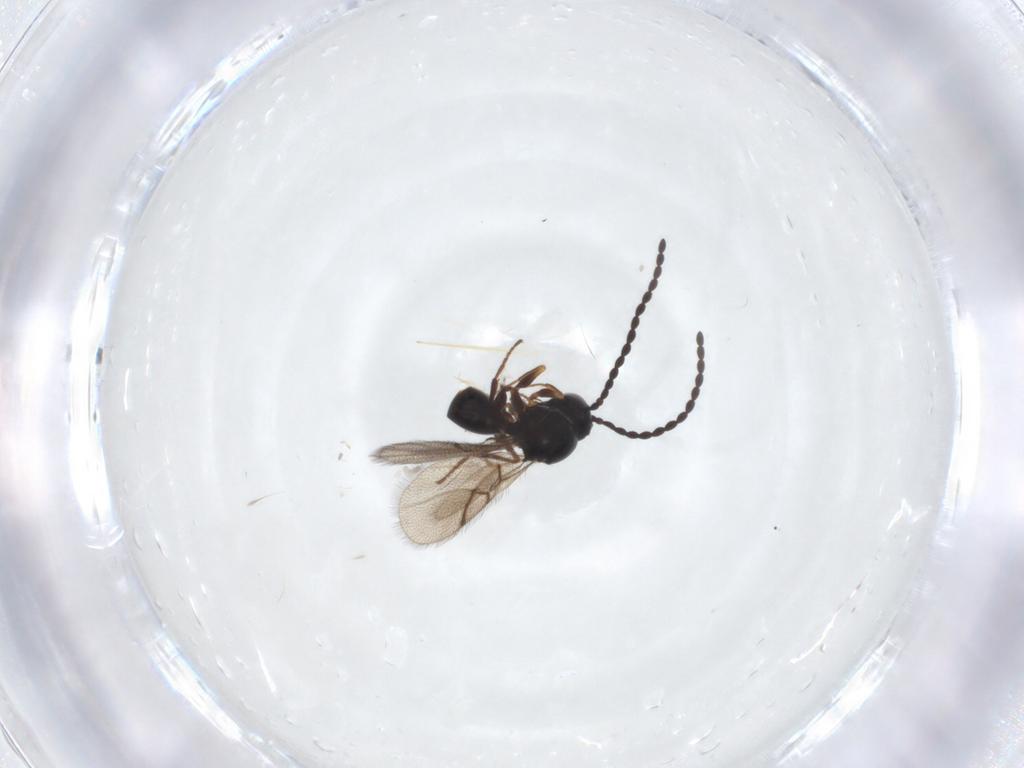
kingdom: Animalia
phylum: Arthropoda
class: Insecta
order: Hymenoptera
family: Figitidae
